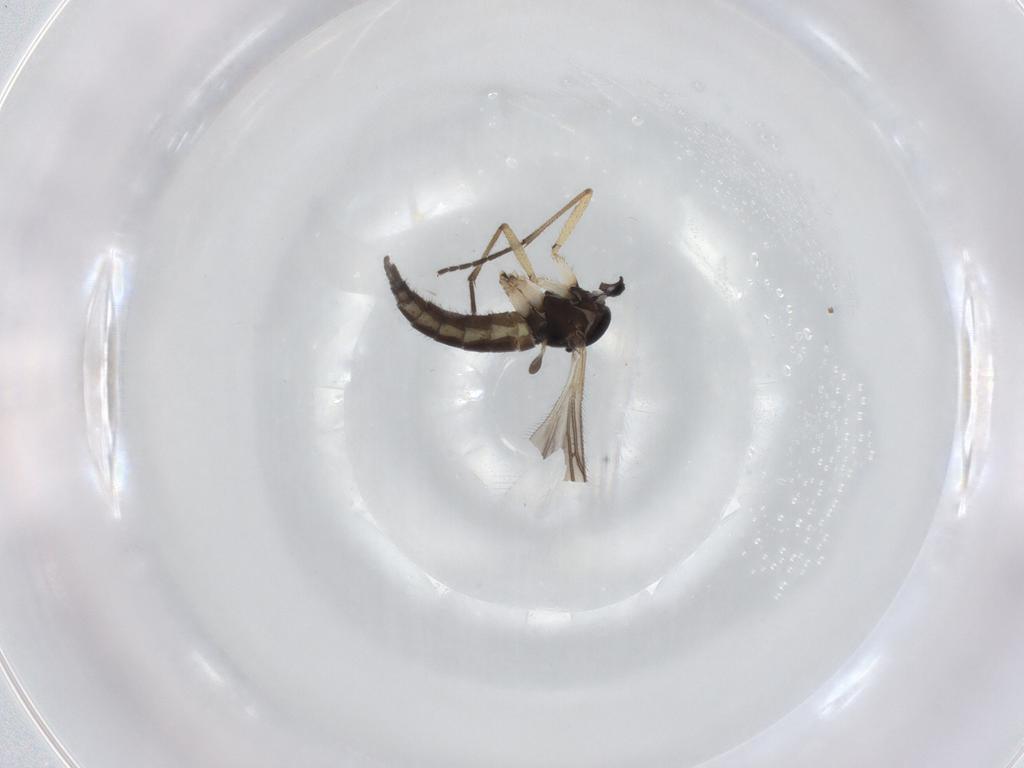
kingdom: Animalia
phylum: Arthropoda
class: Insecta
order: Diptera
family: Sciaridae
